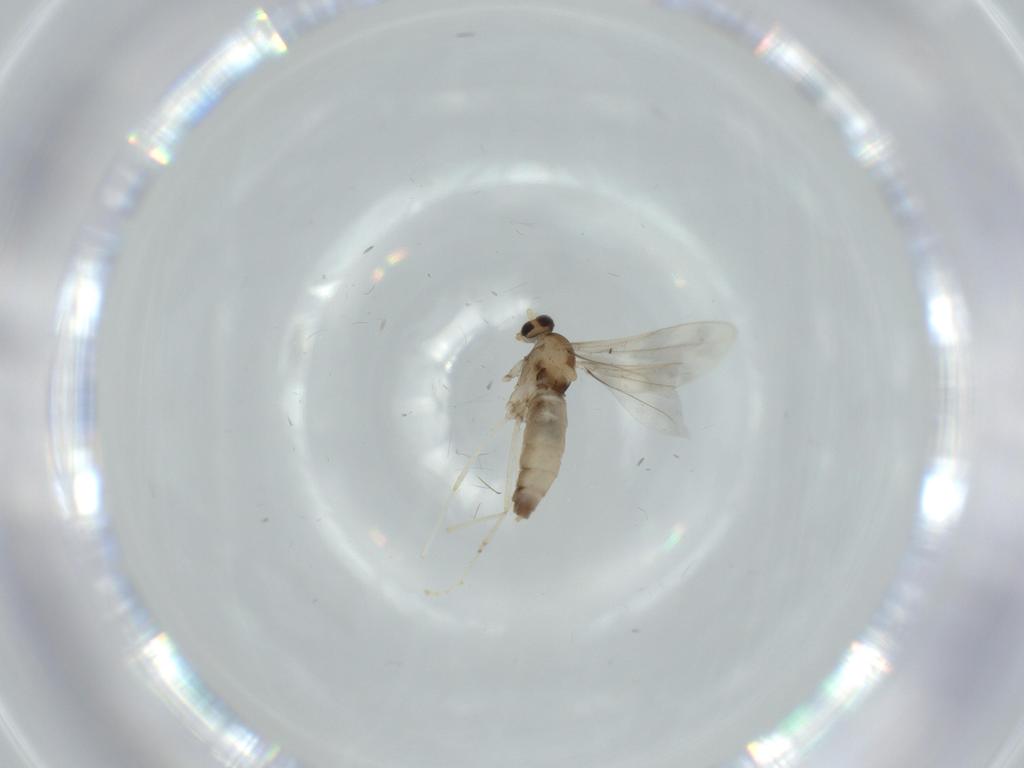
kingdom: Animalia
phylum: Arthropoda
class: Insecta
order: Diptera
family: Cecidomyiidae
